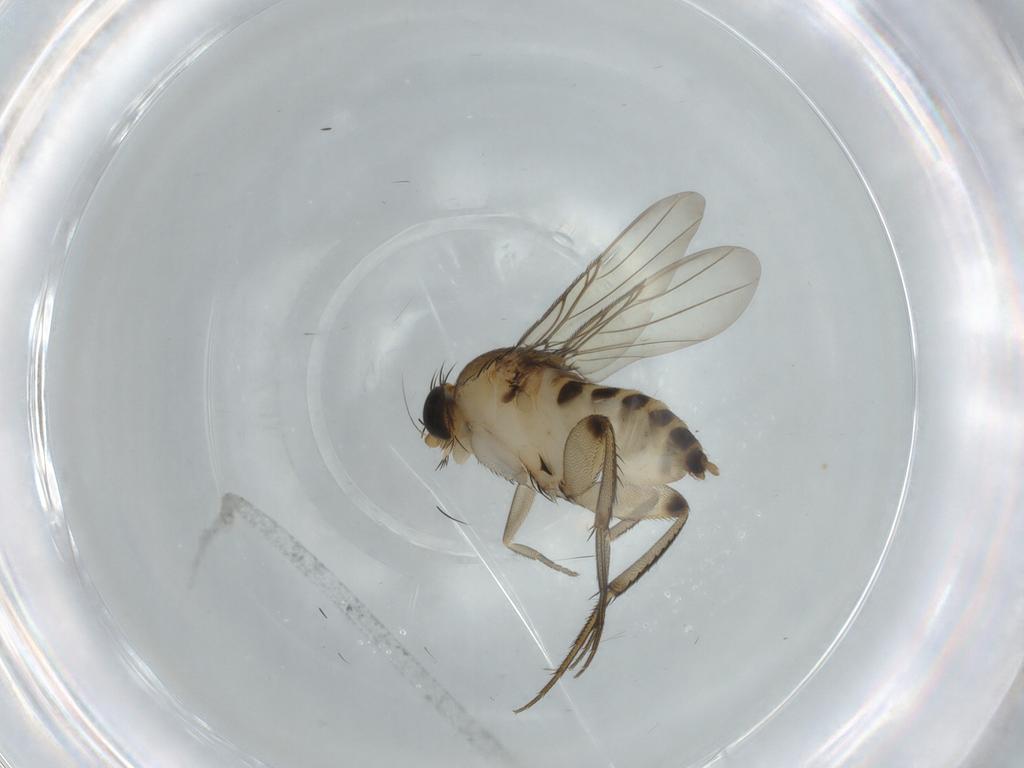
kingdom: Animalia
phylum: Arthropoda
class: Insecta
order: Diptera
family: Phoridae
